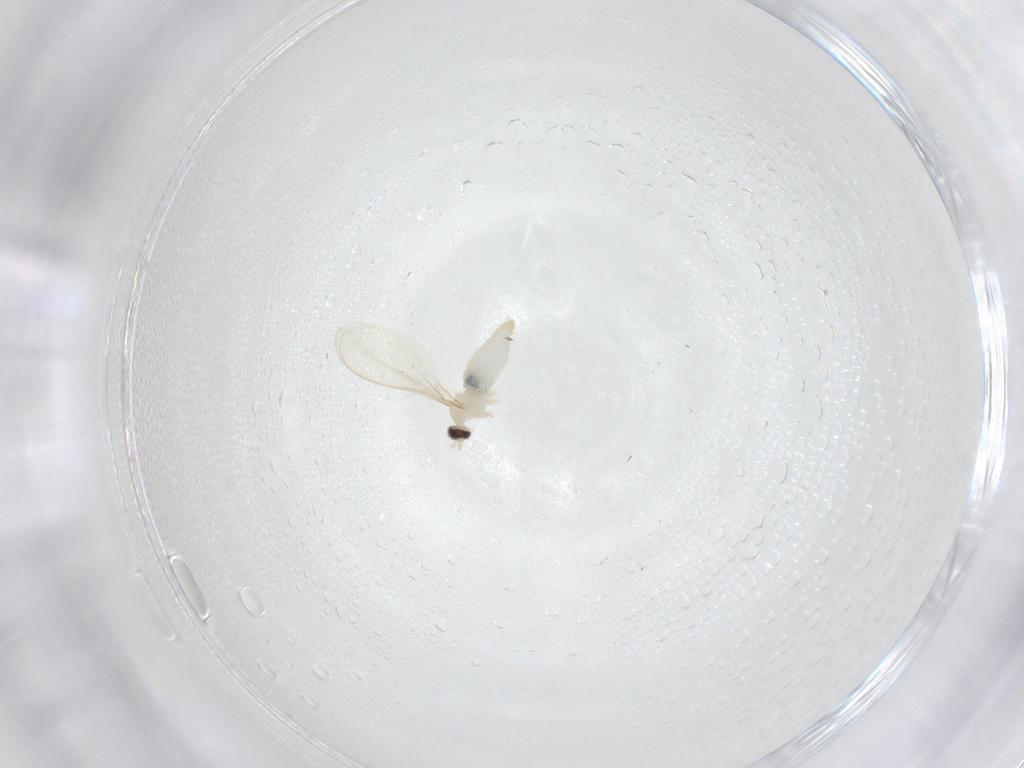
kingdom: Animalia
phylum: Arthropoda
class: Insecta
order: Diptera
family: Cecidomyiidae
